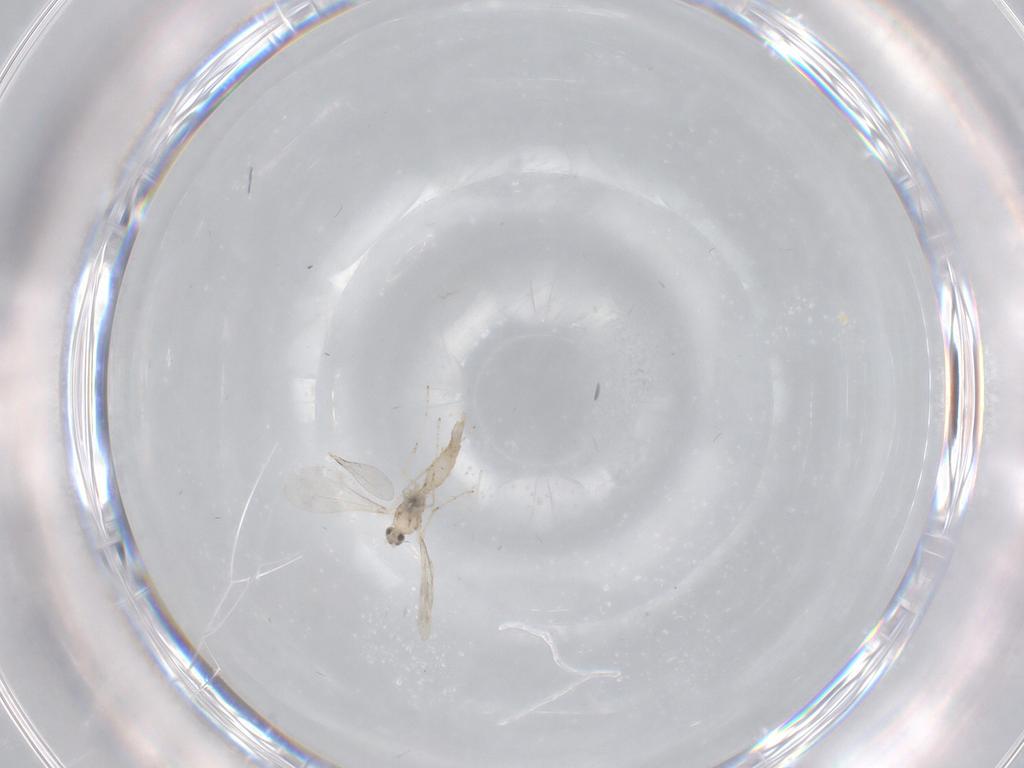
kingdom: Animalia
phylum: Arthropoda
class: Insecta
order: Diptera
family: Cecidomyiidae
